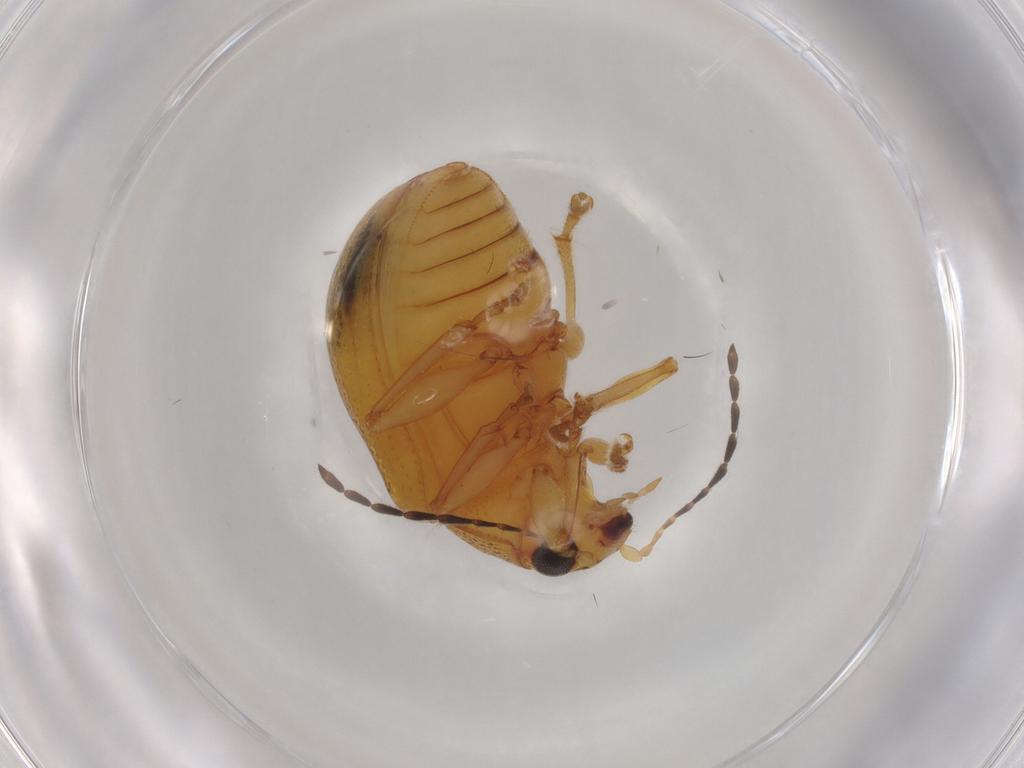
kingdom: Animalia
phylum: Arthropoda
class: Insecta
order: Coleoptera
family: Chrysomelidae
